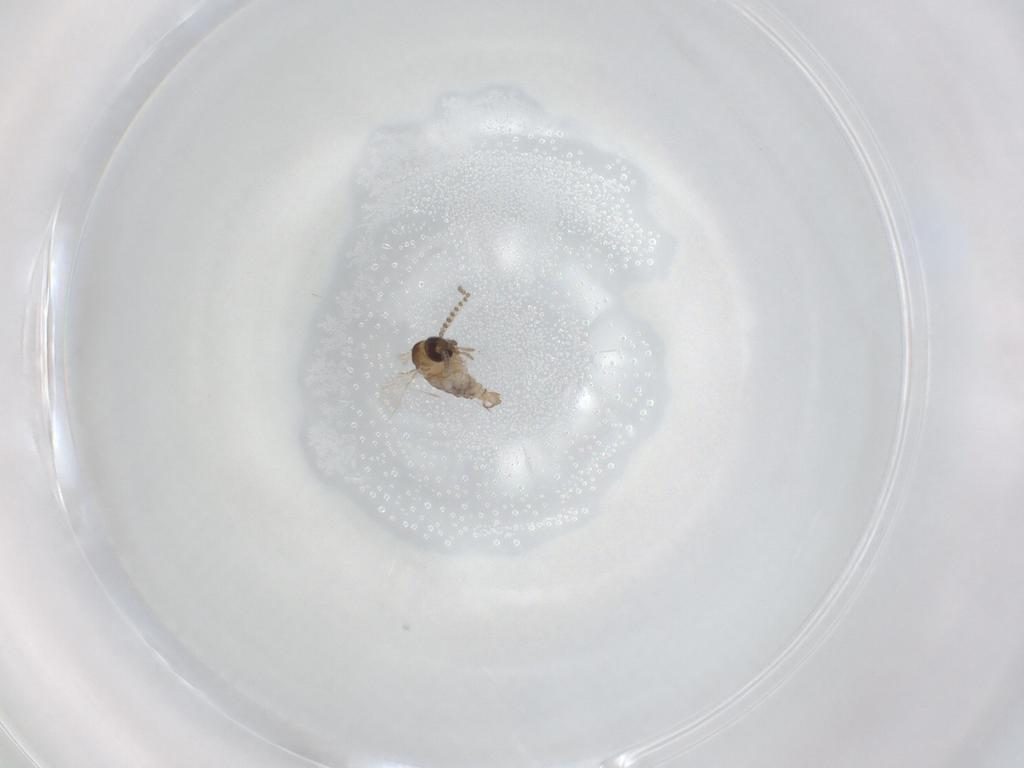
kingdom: Animalia
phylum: Arthropoda
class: Insecta
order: Diptera
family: Psychodidae
